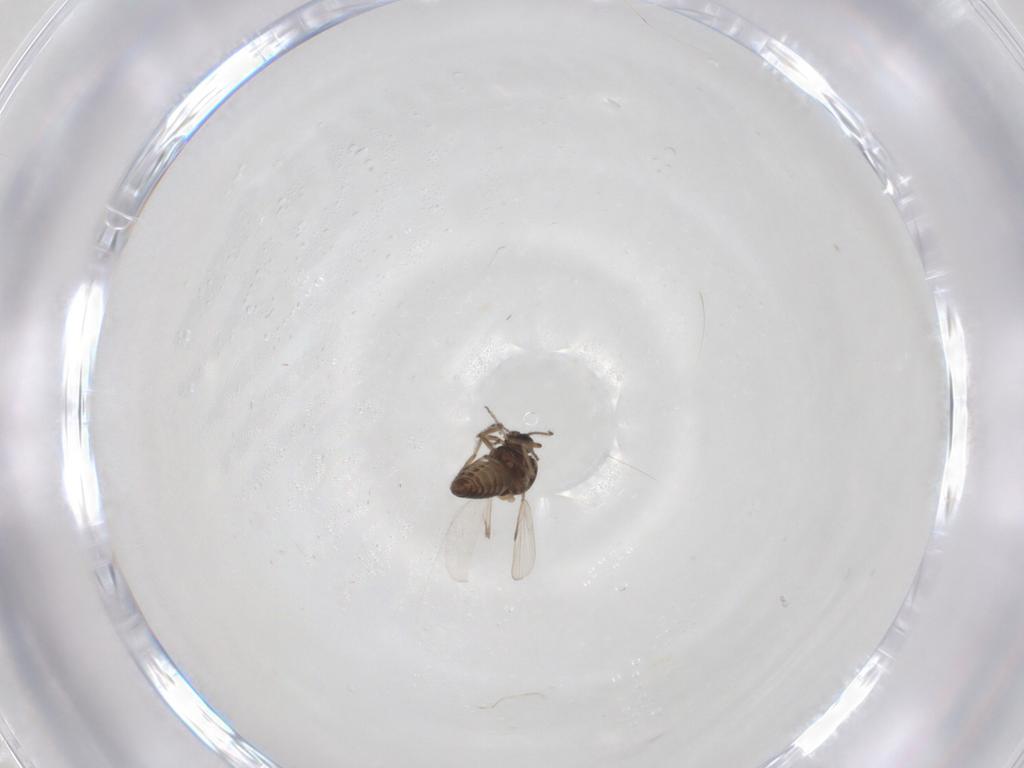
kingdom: Animalia
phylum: Arthropoda
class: Insecta
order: Diptera
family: Ceratopogonidae
